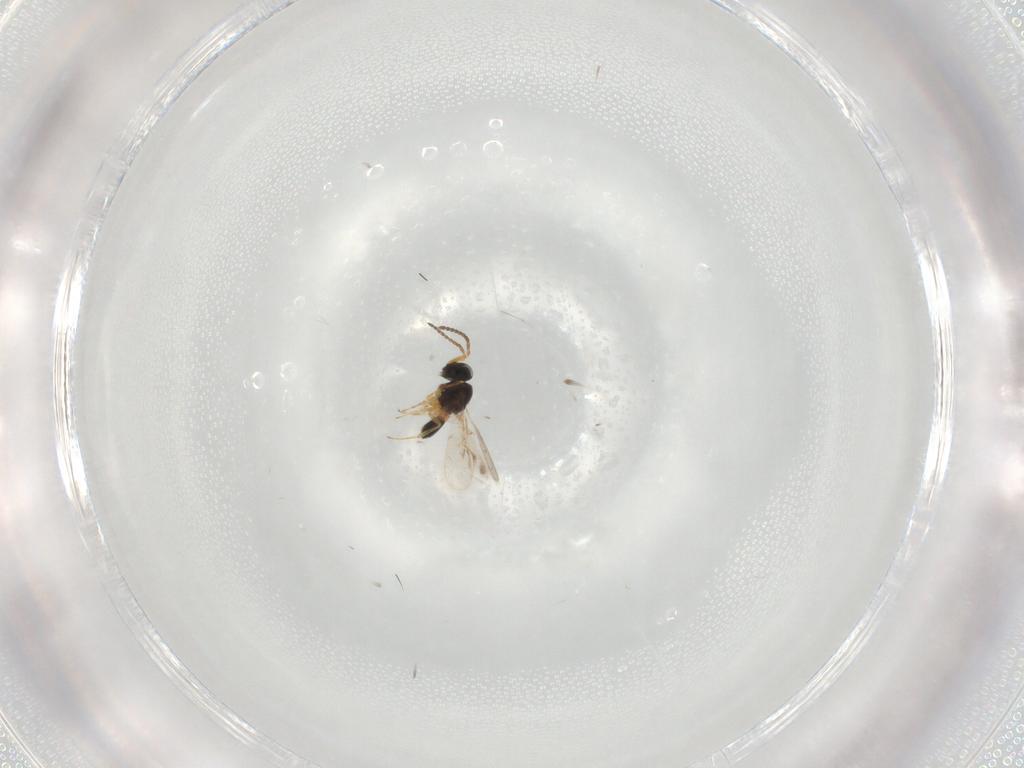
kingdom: Animalia
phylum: Arthropoda
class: Insecta
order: Hymenoptera
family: Scelionidae
